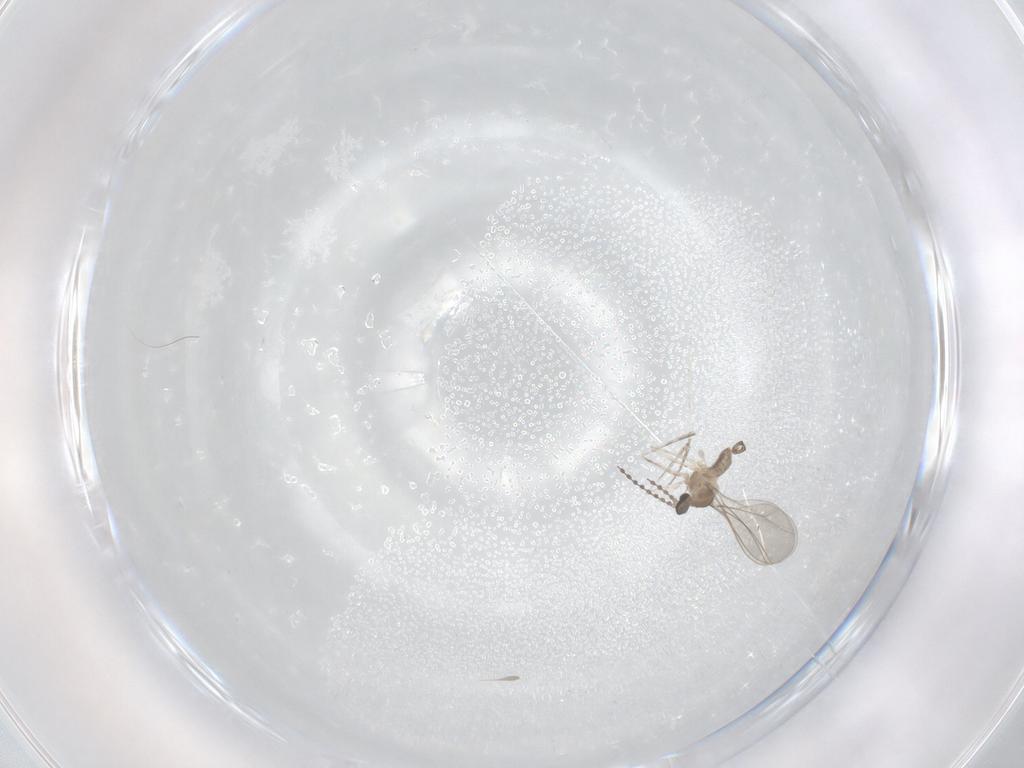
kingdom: Animalia
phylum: Arthropoda
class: Insecta
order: Diptera
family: Cecidomyiidae
